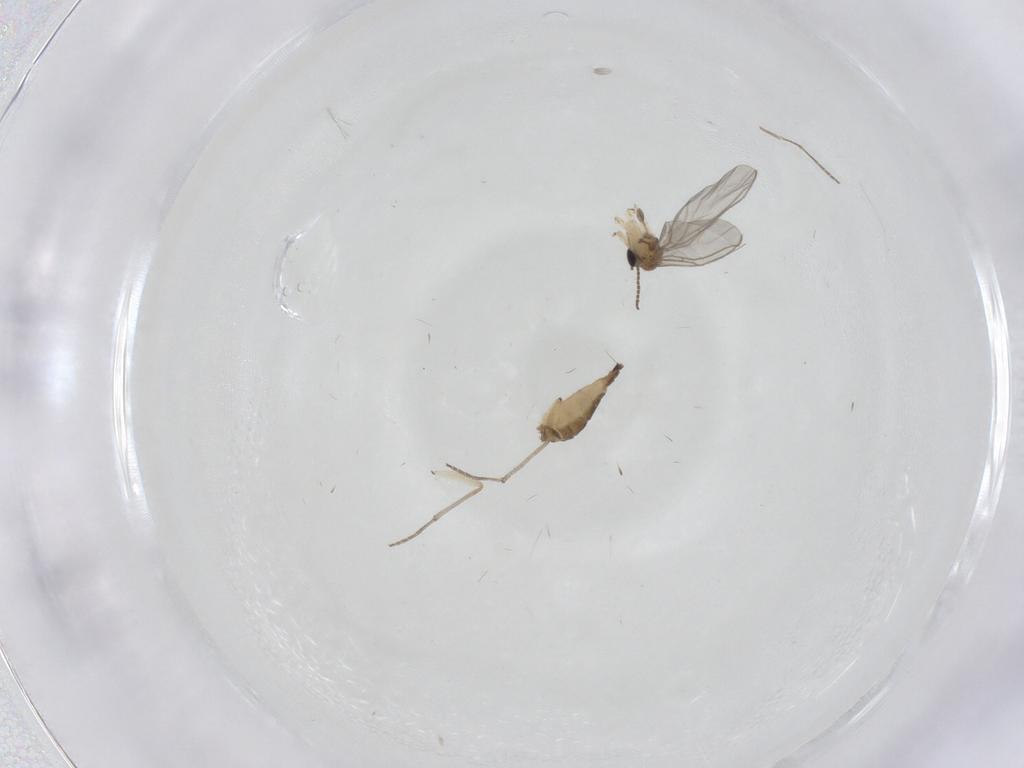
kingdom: Animalia
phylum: Arthropoda
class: Insecta
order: Diptera
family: Sciaridae
